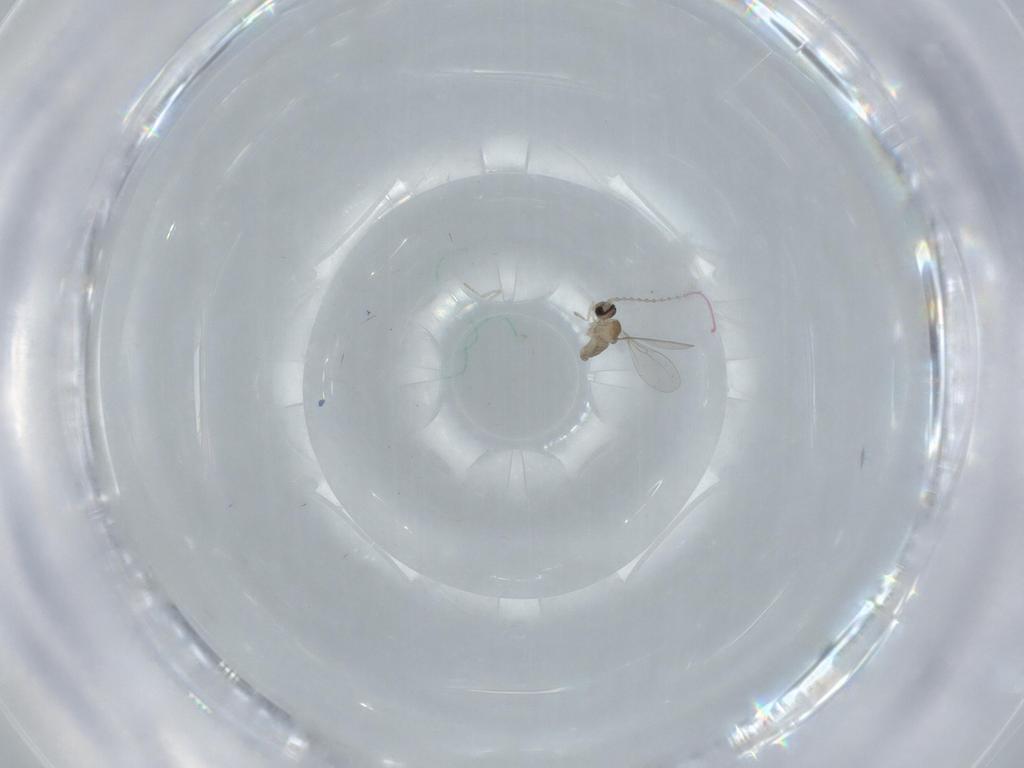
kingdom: Animalia
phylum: Arthropoda
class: Insecta
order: Diptera
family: Cecidomyiidae
